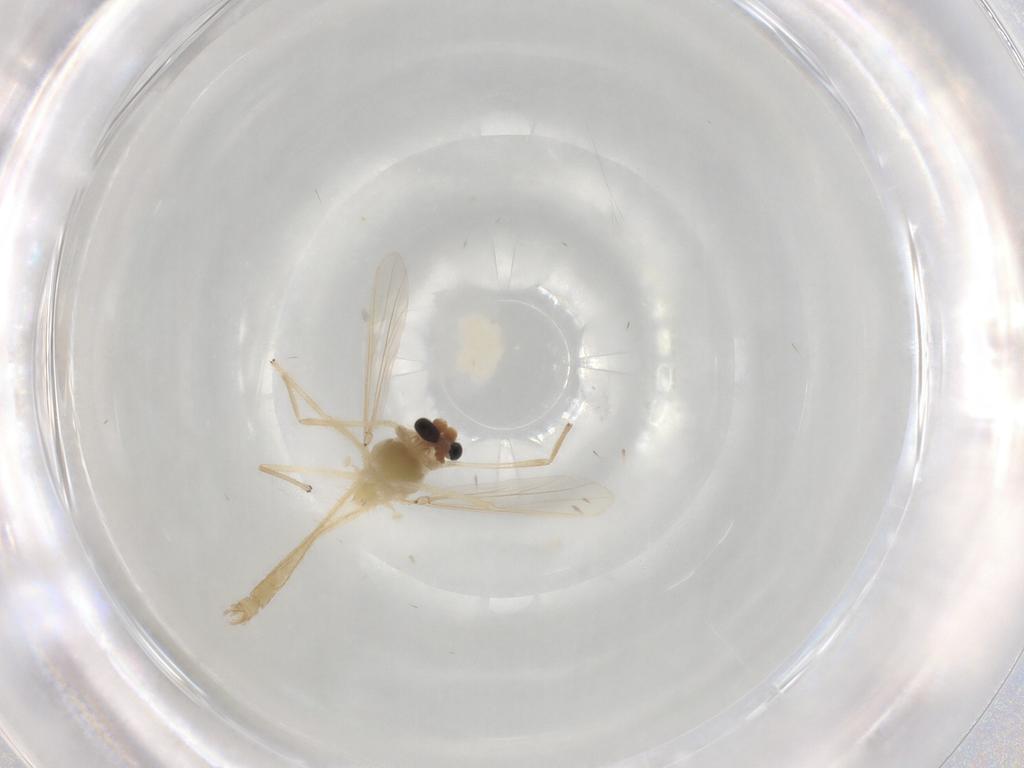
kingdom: Animalia
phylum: Arthropoda
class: Insecta
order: Diptera
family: Chironomidae
